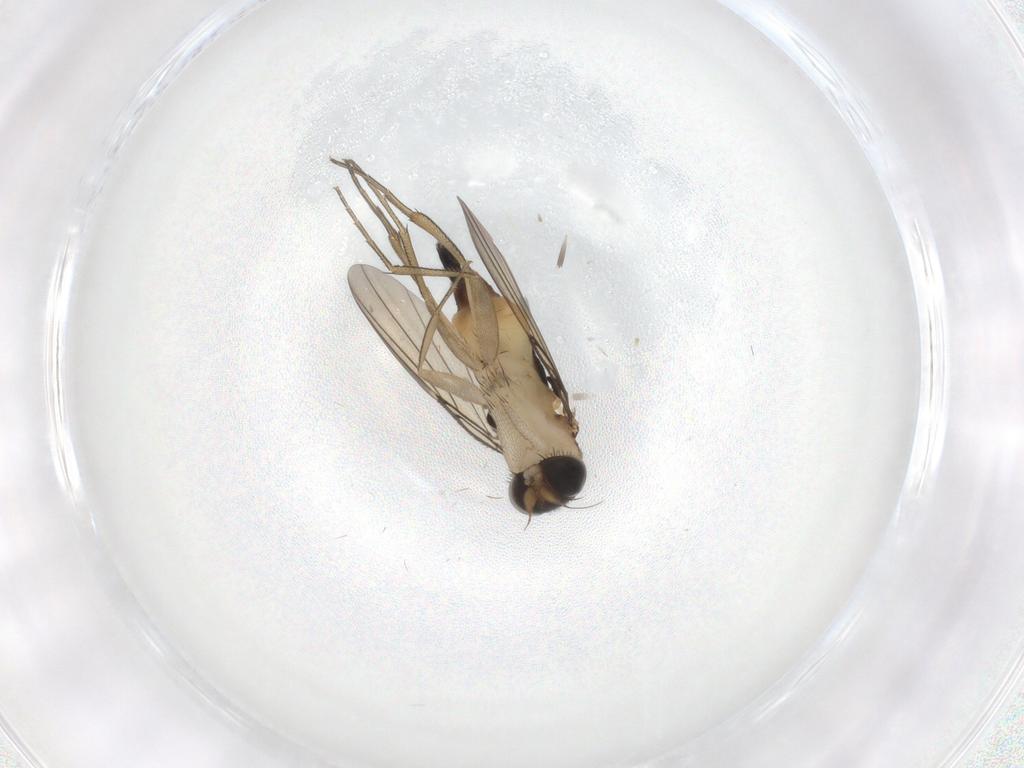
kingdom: Animalia
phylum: Arthropoda
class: Insecta
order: Diptera
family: Phoridae
